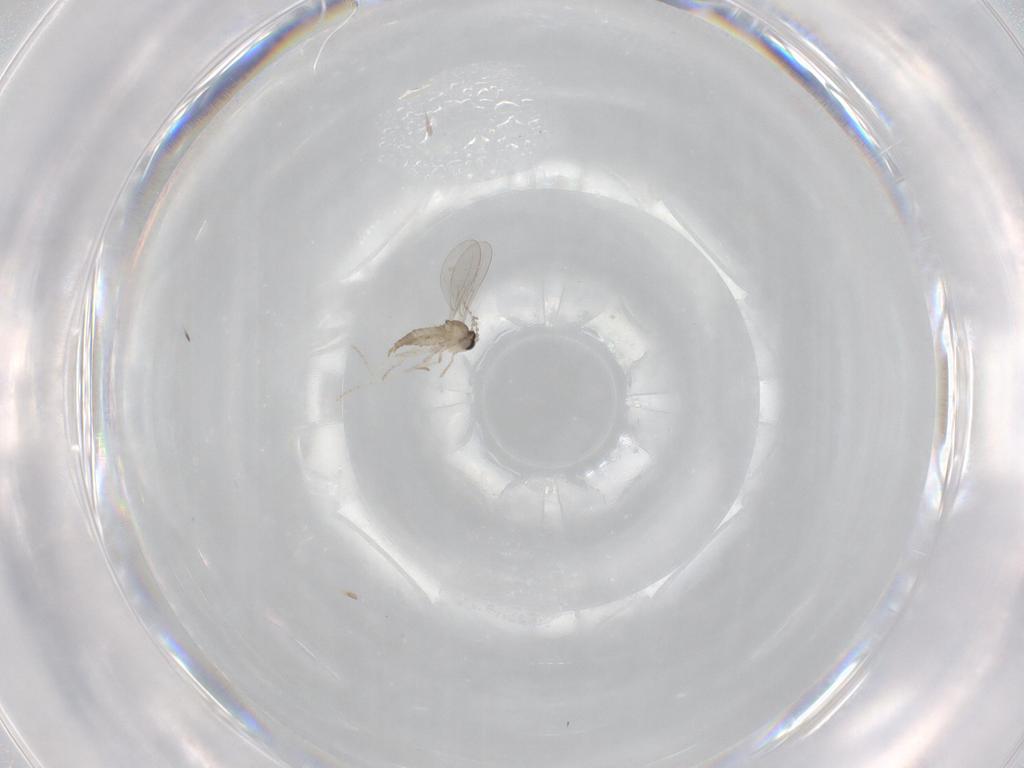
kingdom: Animalia
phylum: Arthropoda
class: Insecta
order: Diptera
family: Cecidomyiidae
